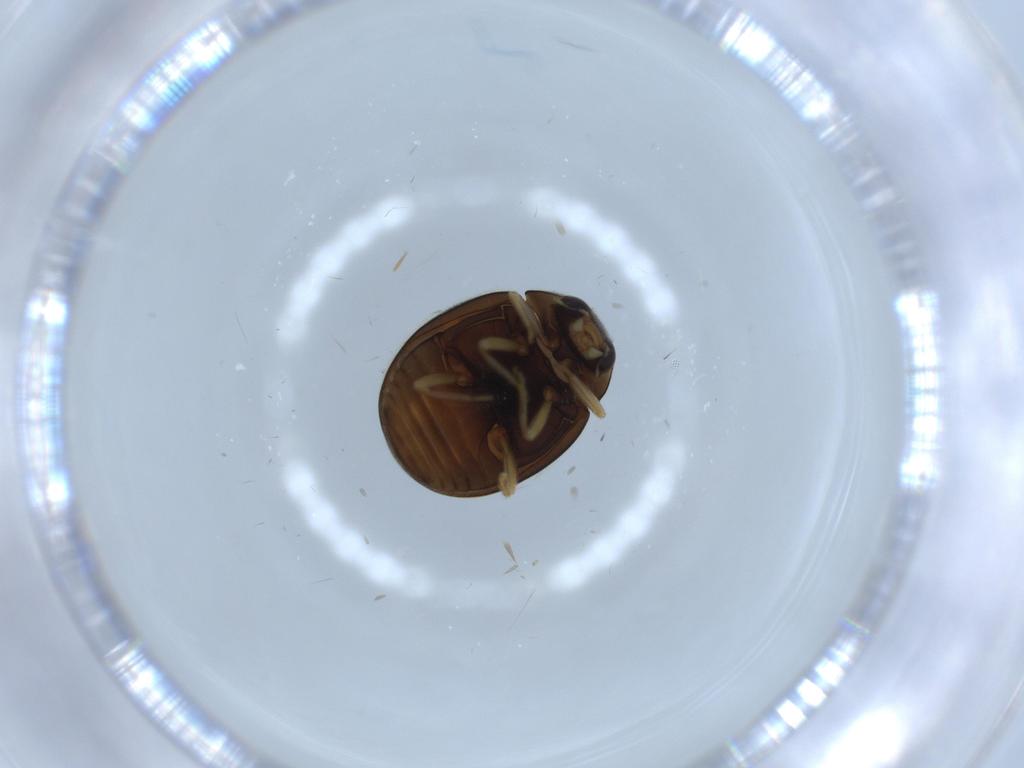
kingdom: Animalia
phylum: Arthropoda
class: Insecta
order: Coleoptera
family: Coccinellidae
